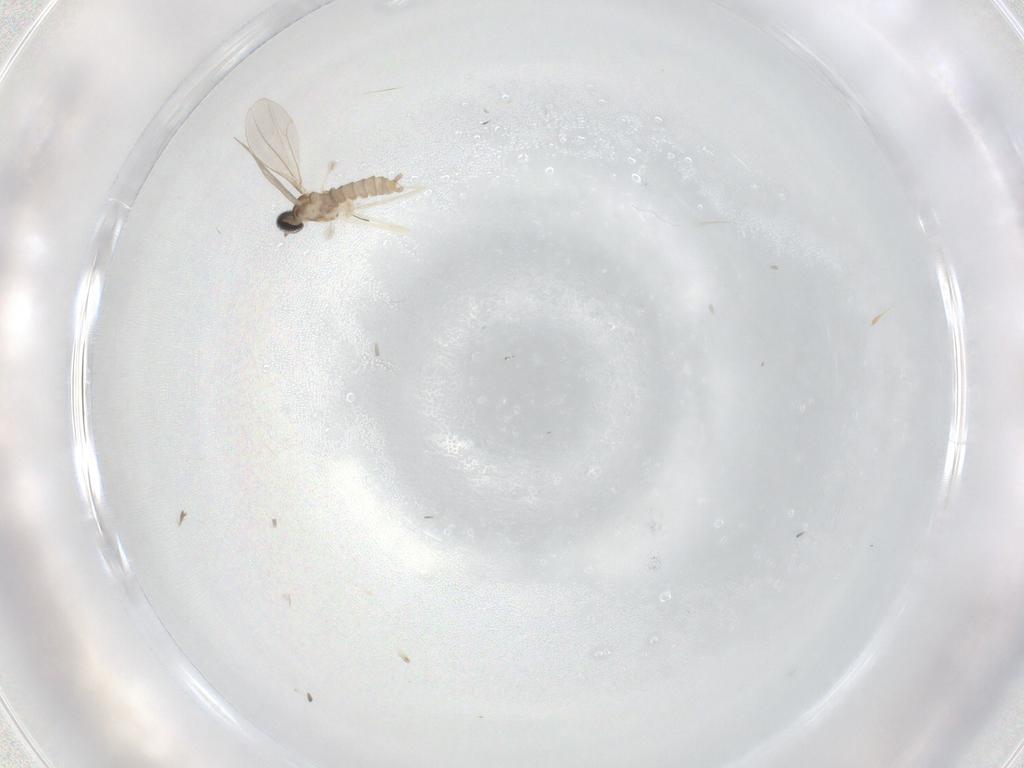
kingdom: Animalia
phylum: Arthropoda
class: Insecta
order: Diptera
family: Cecidomyiidae
